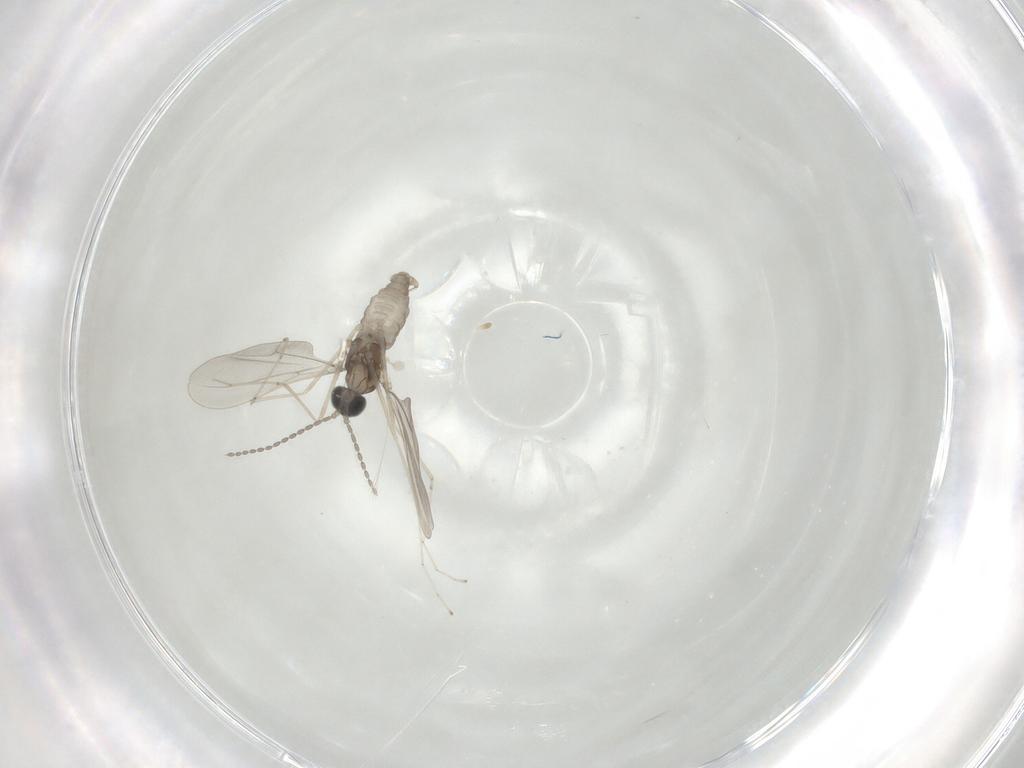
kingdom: Animalia
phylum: Arthropoda
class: Insecta
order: Diptera
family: Cecidomyiidae
